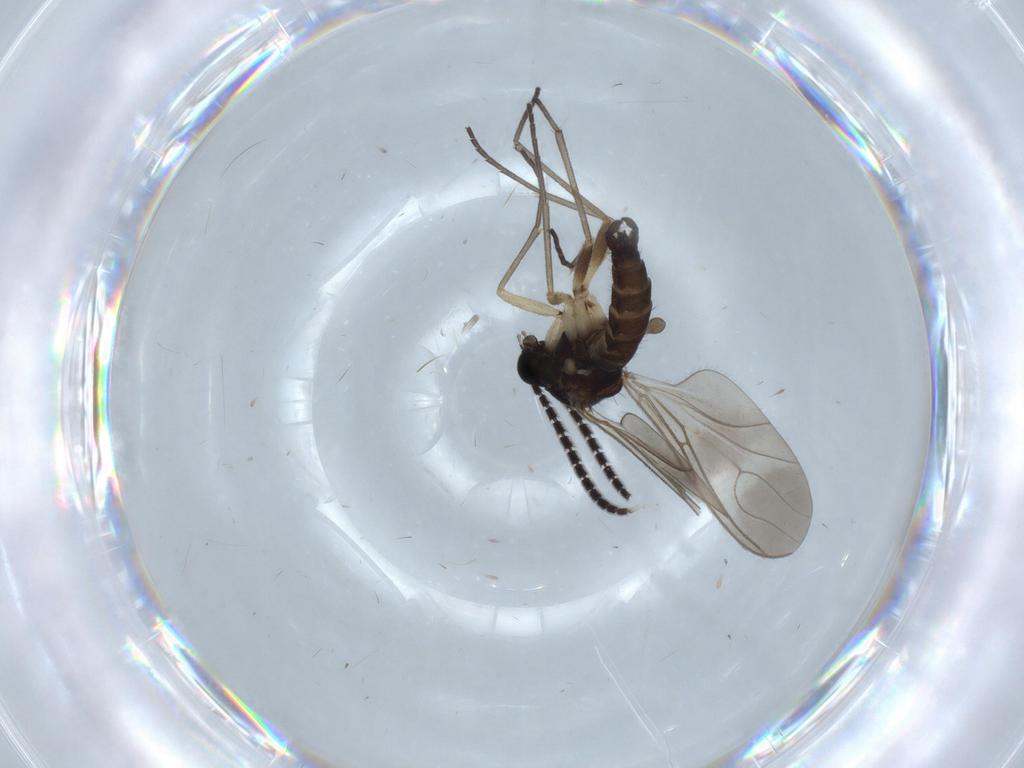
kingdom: Animalia
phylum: Arthropoda
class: Insecta
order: Diptera
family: Sciaridae
